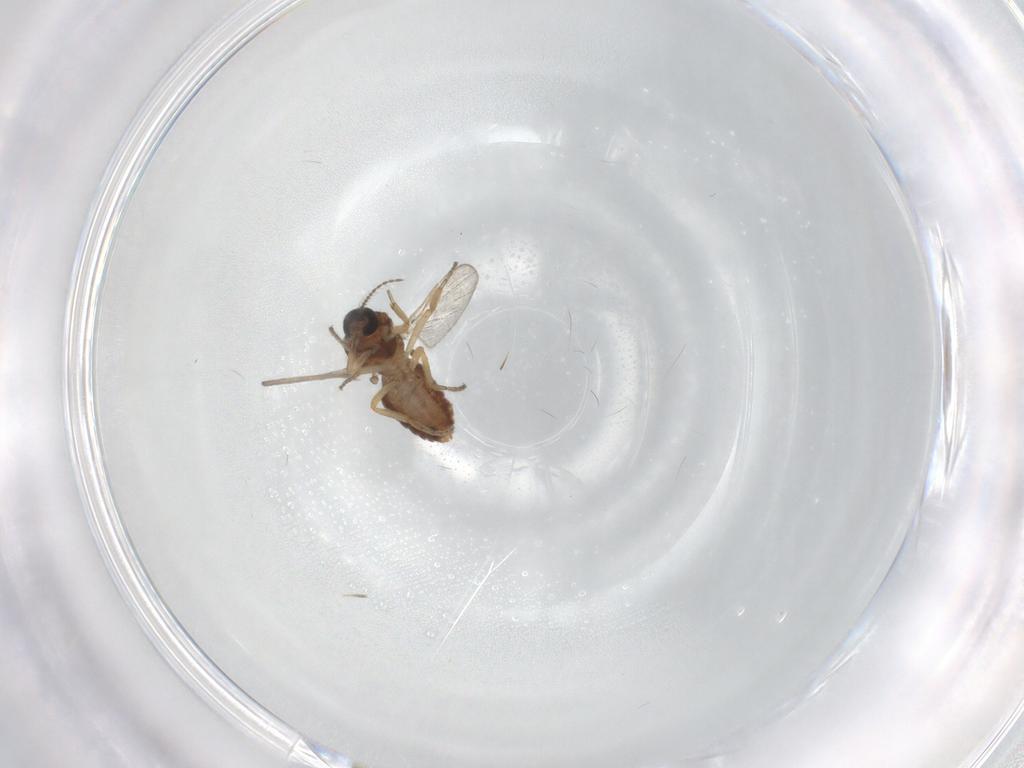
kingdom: Animalia
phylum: Arthropoda
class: Insecta
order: Diptera
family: Ceratopogonidae
